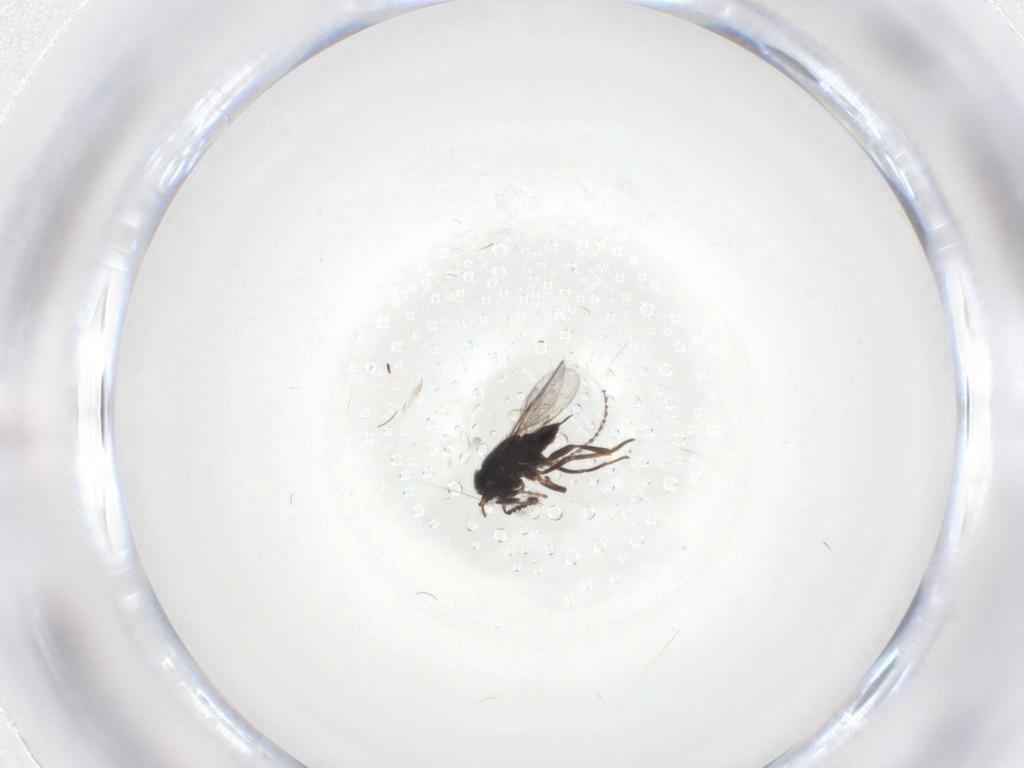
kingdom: Animalia
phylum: Arthropoda
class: Insecta
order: Diptera
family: Cecidomyiidae
